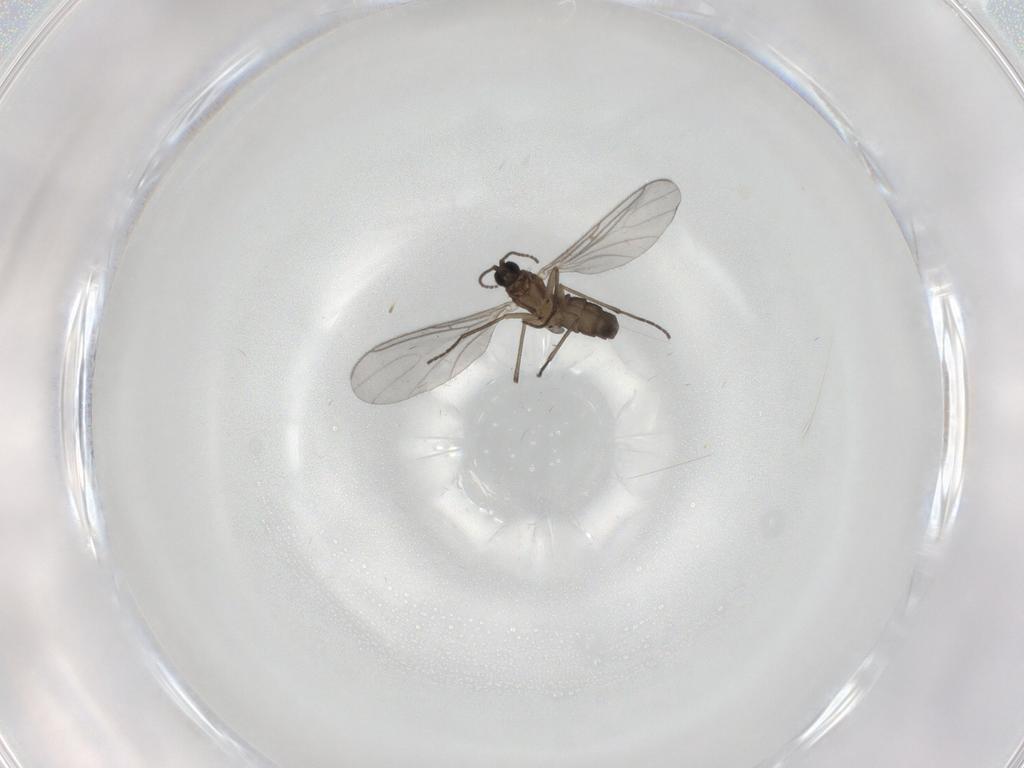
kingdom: Animalia
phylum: Arthropoda
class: Insecta
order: Diptera
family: Sciaridae
